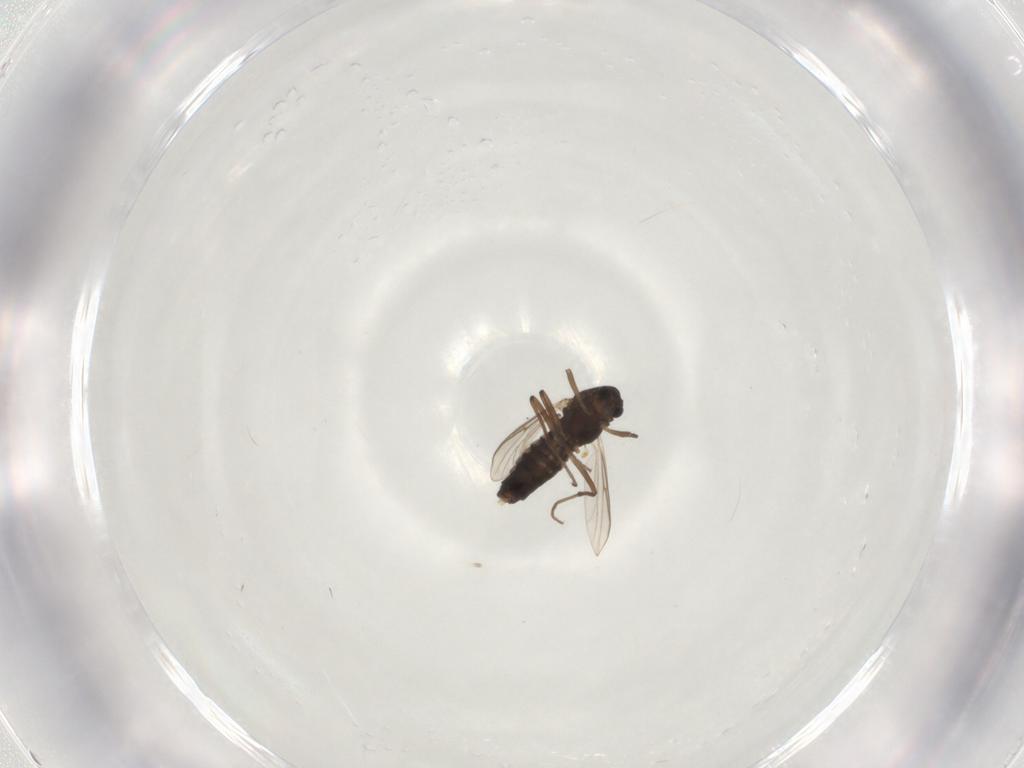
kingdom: Animalia
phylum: Arthropoda
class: Insecta
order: Diptera
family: Chironomidae
